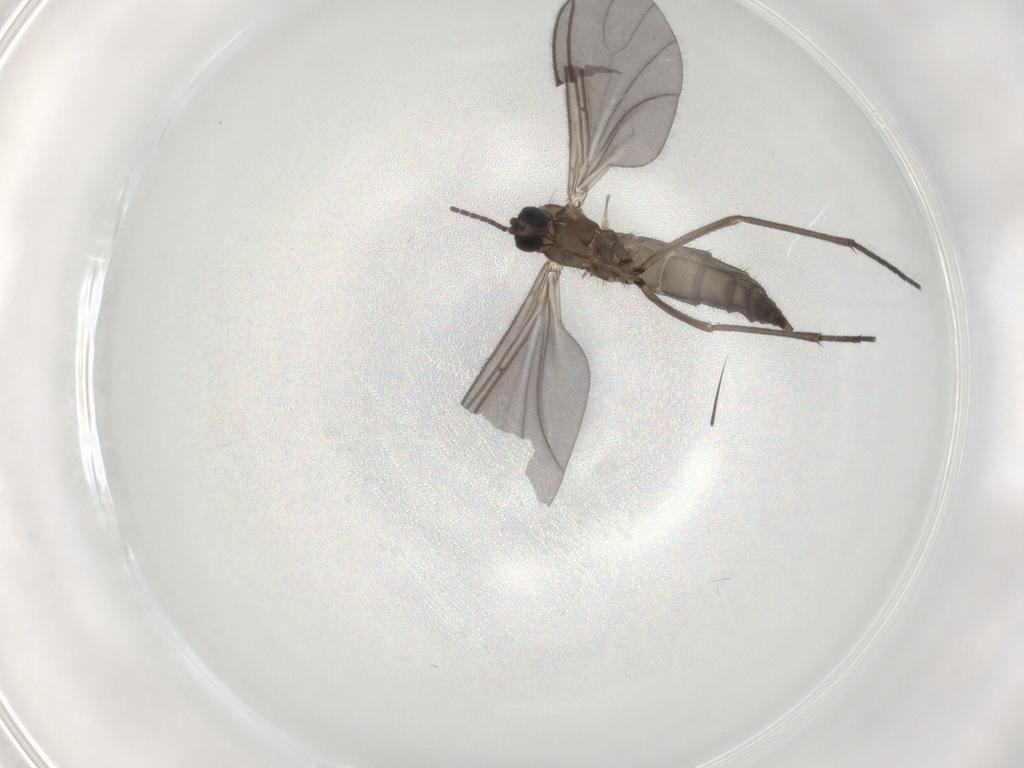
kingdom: Animalia
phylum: Arthropoda
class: Insecta
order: Diptera
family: Sciaridae
